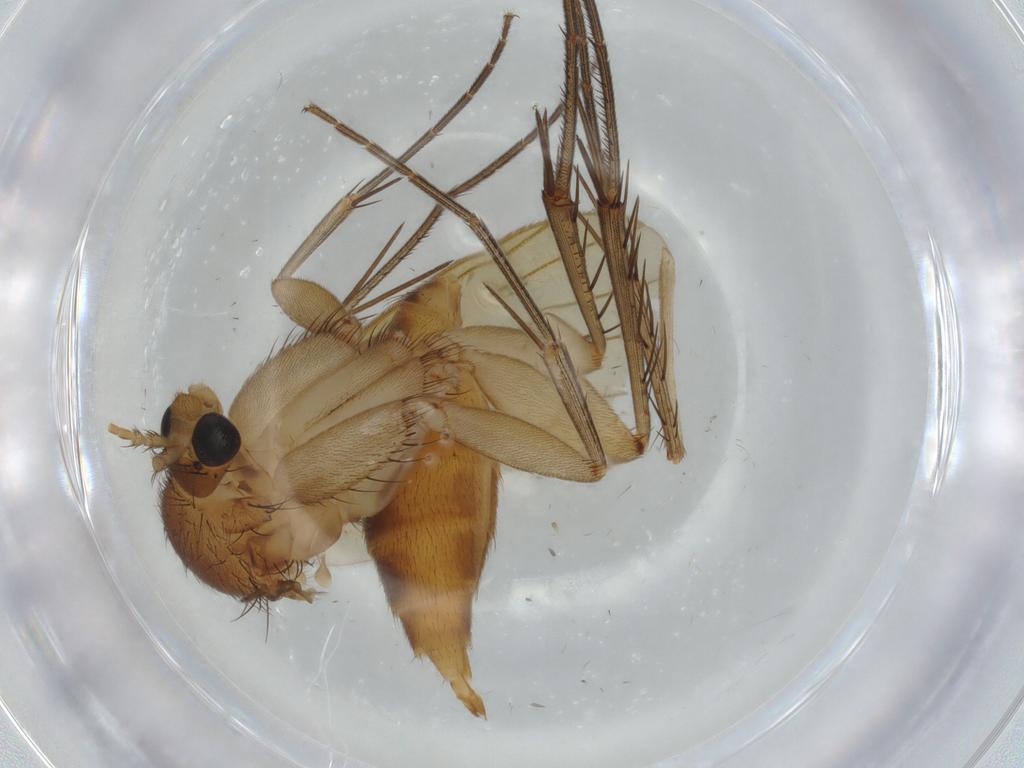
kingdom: Animalia
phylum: Arthropoda
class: Insecta
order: Diptera
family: Mycetophilidae
